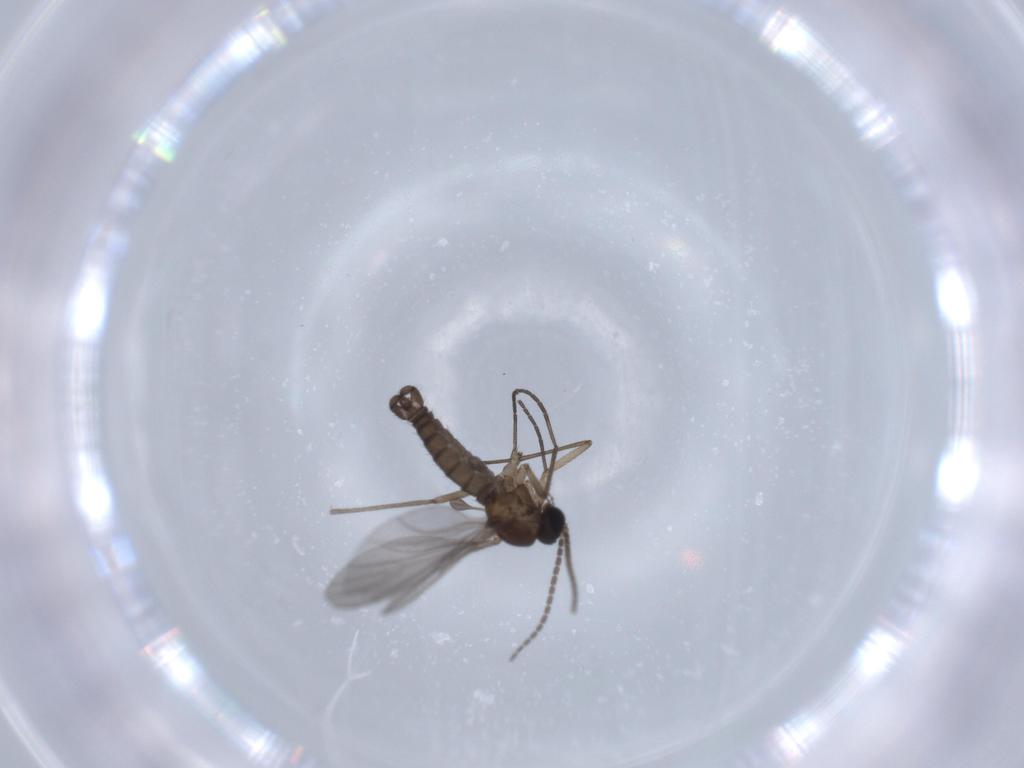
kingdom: Animalia
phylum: Arthropoda
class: Insecta
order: Diptera
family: Sciaridae
